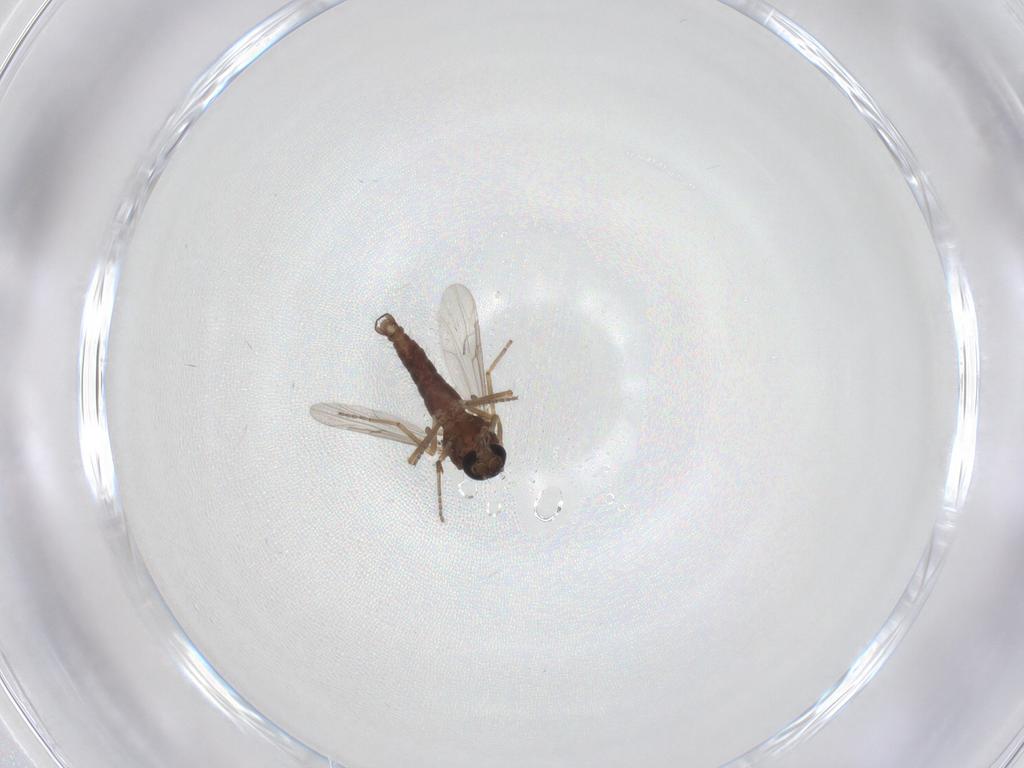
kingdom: Animalia
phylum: Arthropoda
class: Insecta
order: Diptera
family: Ceratopogonidae
